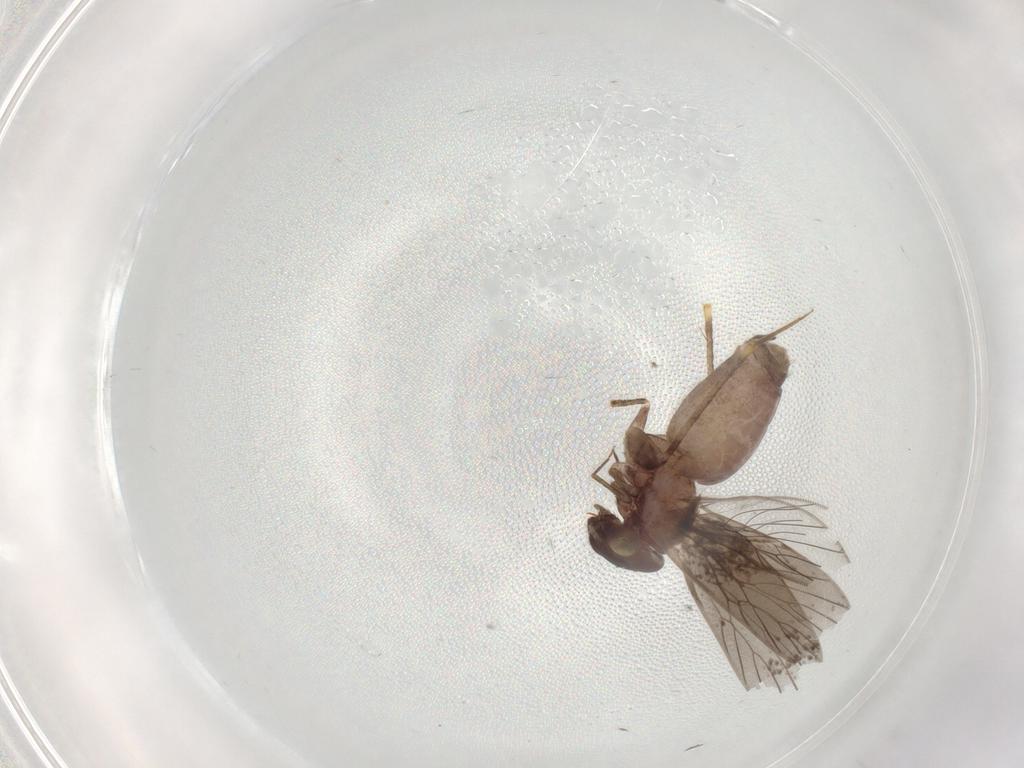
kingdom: Animalia
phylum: Arthropoda
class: Insecta
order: Psocodea
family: Lepidopsocidae
